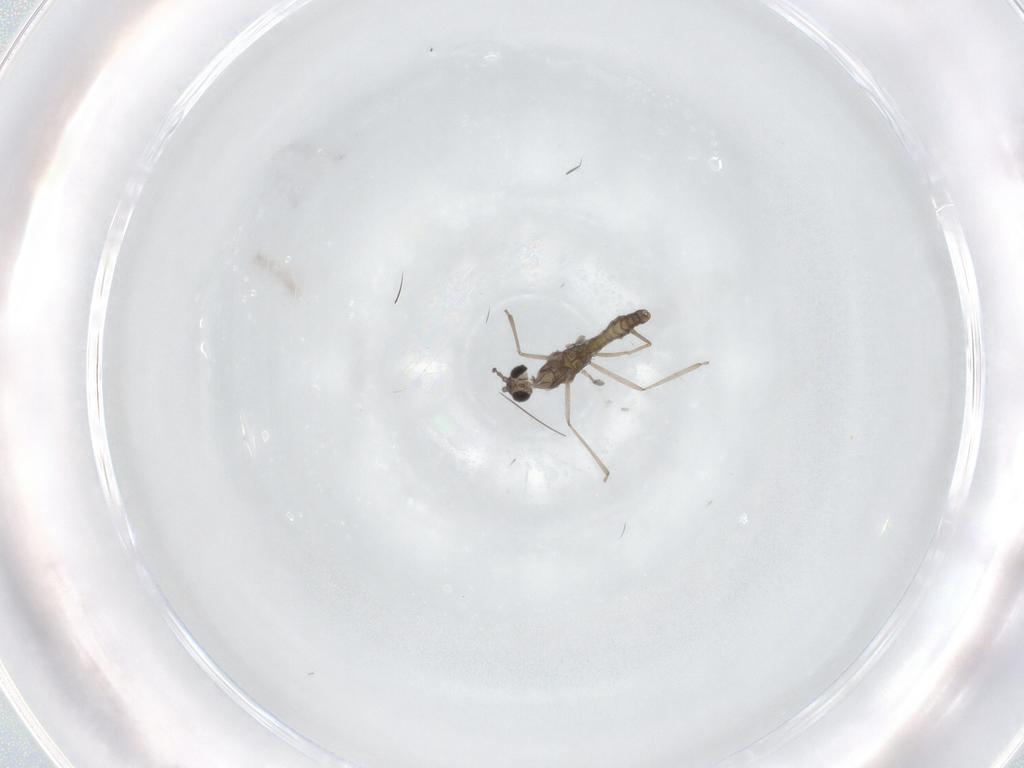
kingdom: Animalia
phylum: Arthropoda
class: Insecta
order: Diptera
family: Cecidomyiidae
